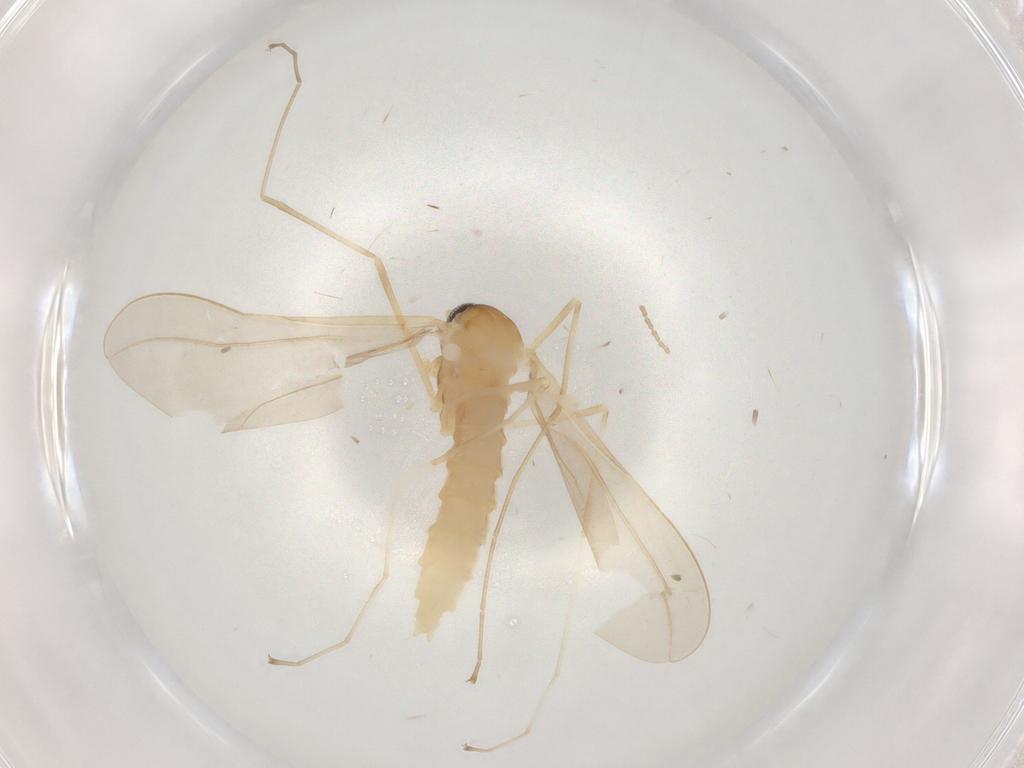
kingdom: Animalia
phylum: Arthropoda
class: Insecta
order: Diptera
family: Cecidomyiidae
